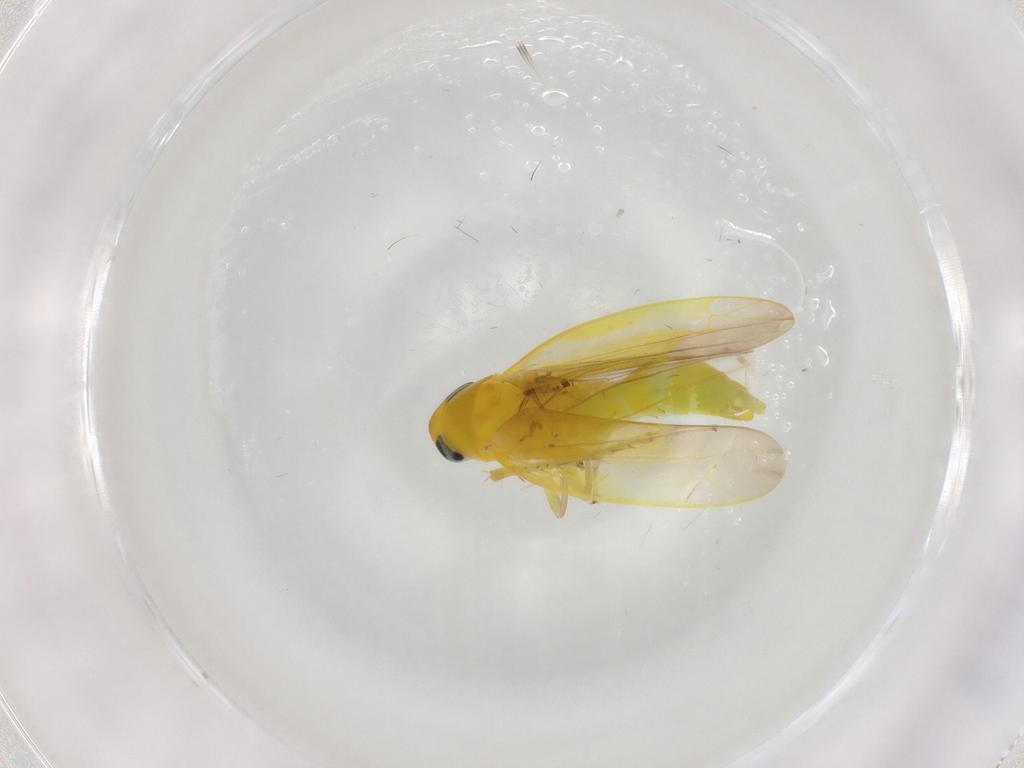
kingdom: Animalia
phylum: Arthropoda
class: Insecta
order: Hemiptera
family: Cicadellidae
